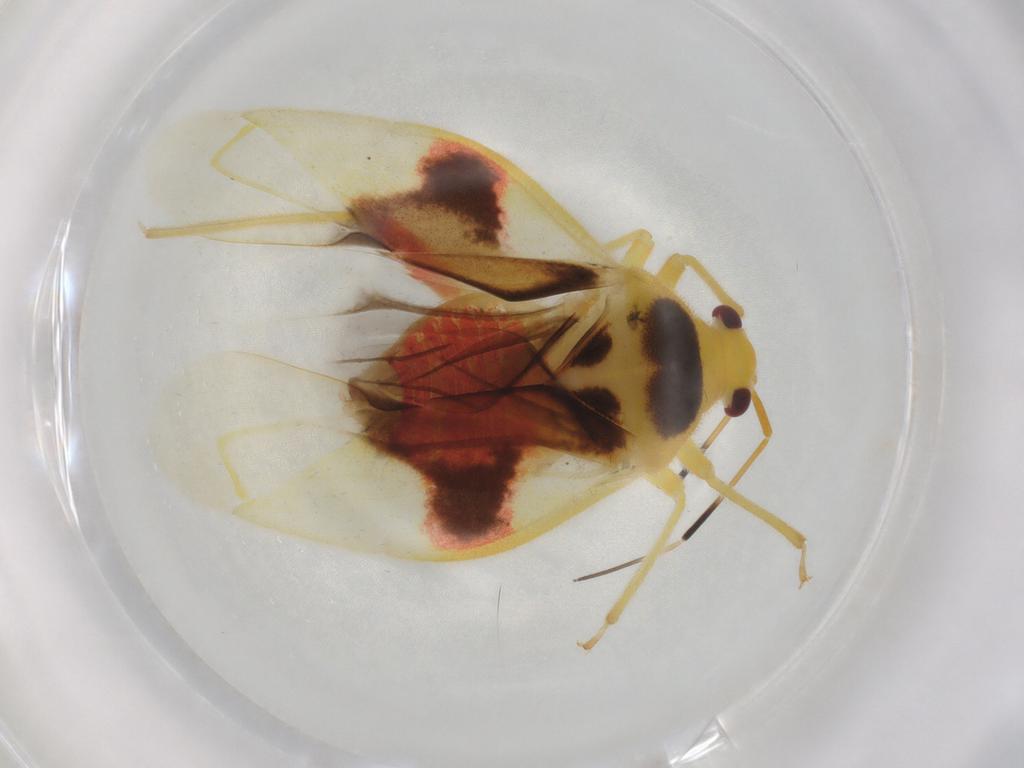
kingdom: Animalia
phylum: Arthropoda
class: Insecta
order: Hemiptera
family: Miridae
